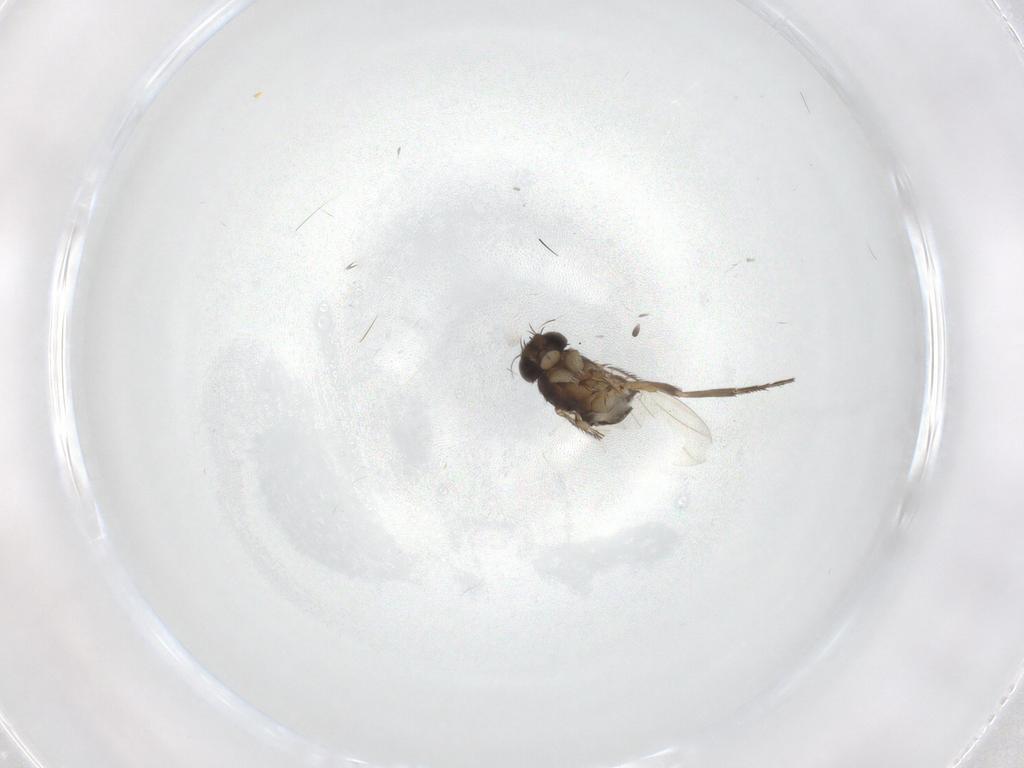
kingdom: Animalia
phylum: Arthropoda
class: Insecta
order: Diptera
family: Phoridae
